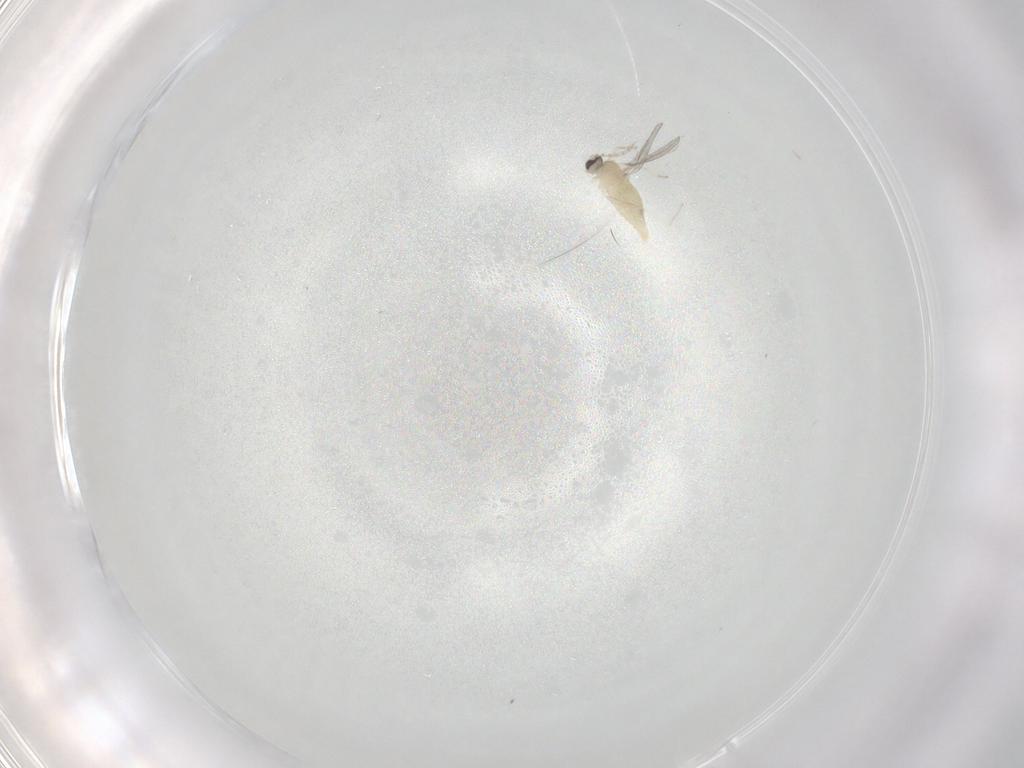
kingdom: Animalia
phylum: Arthropoda
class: Insecta
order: Diptera
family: Cecidomyiidae
